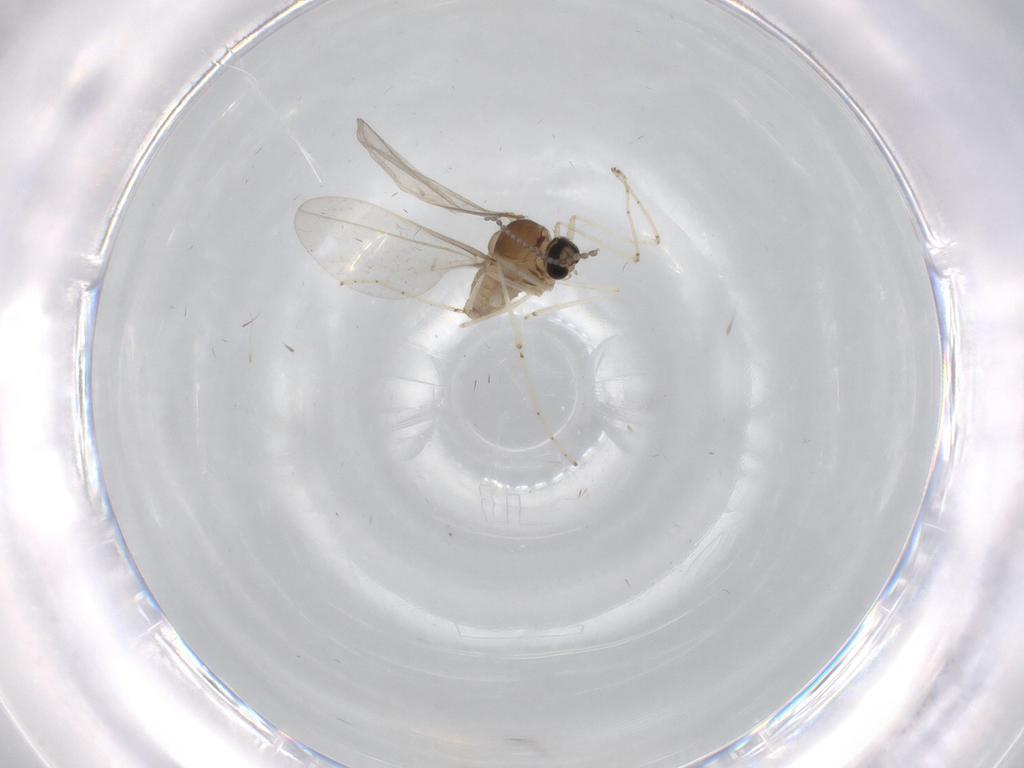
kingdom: Animalia
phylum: Arthropoda
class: Insecta
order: Diptera
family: Cecidomyiidae
